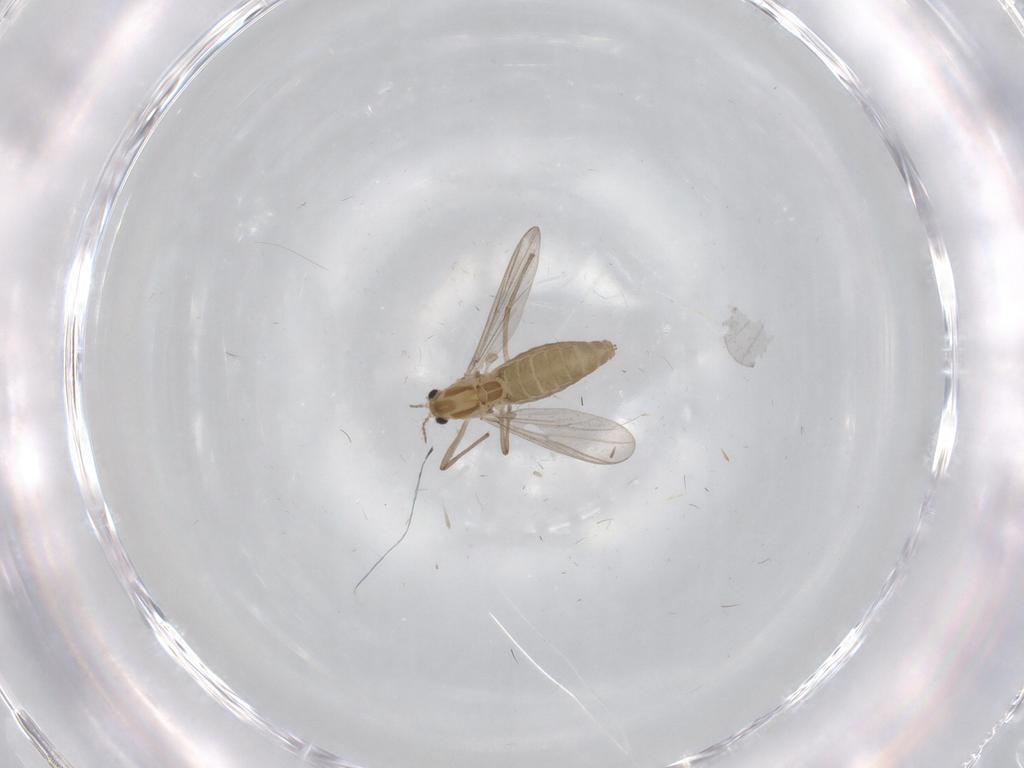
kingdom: Animalia
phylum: Arthropoda
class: Insecta
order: Diptera
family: Chironomidae
